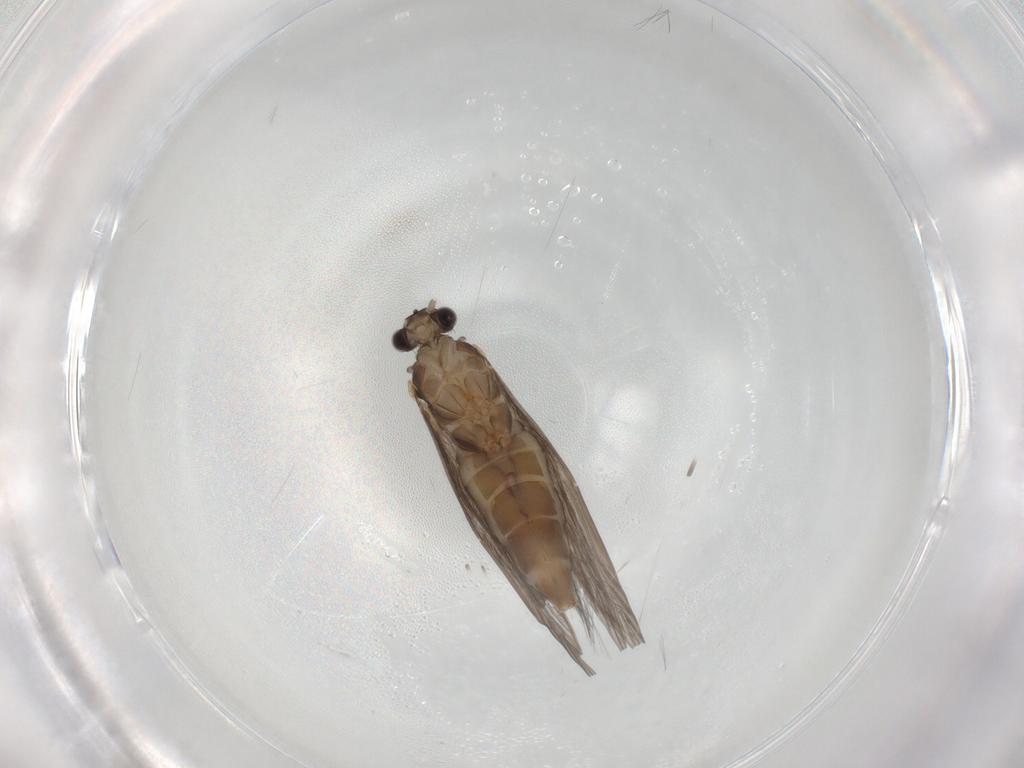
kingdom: Animalia
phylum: Arthropoda
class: Insecta
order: Trichoptera
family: Hydroptilidae
